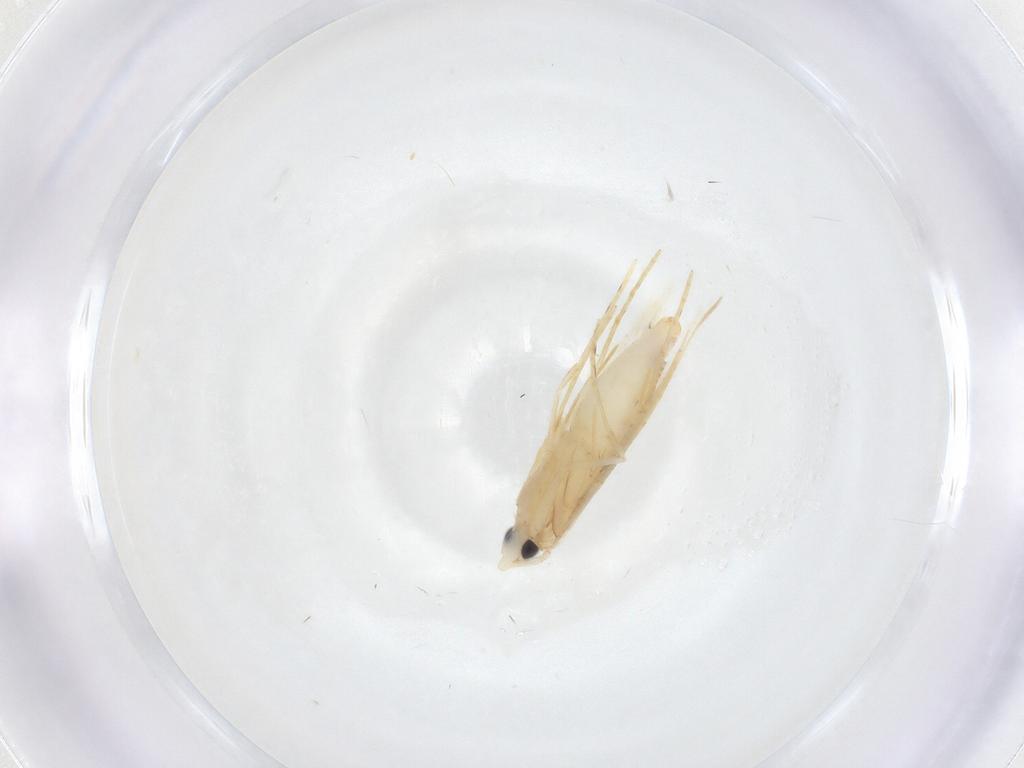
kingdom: Animalia
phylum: Arthropoda
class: Insecta
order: Lepidoptera
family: Tineidae
